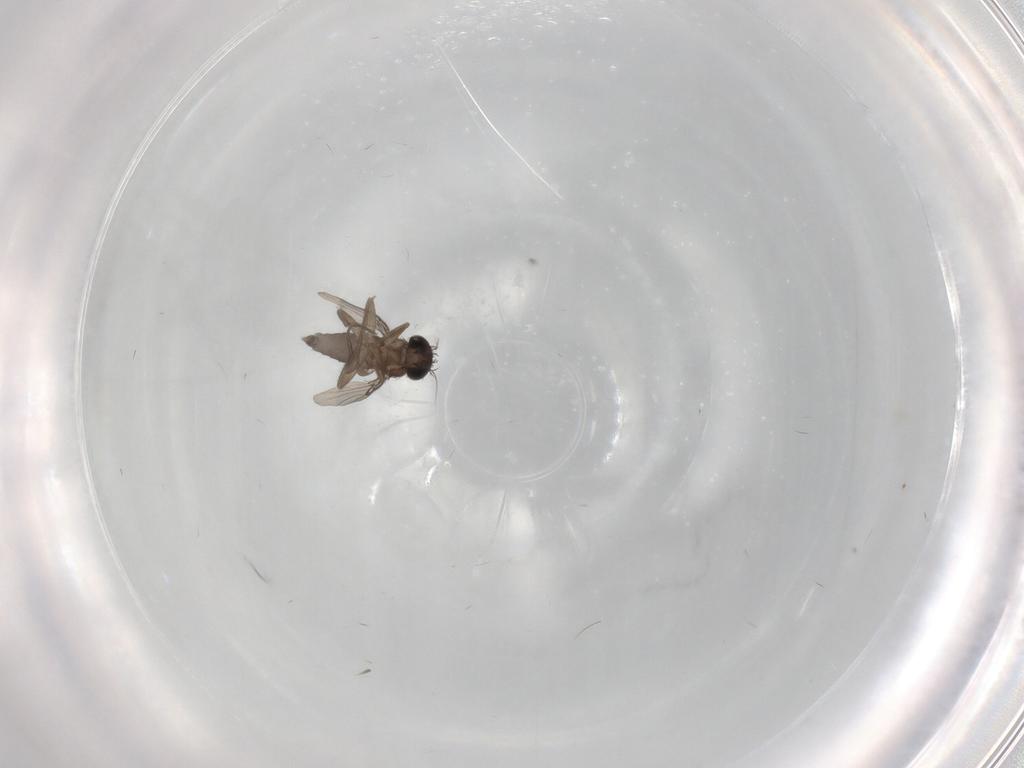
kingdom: Animalia
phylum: Arthropoda
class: Insecta
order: Diptera
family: Phoridae
